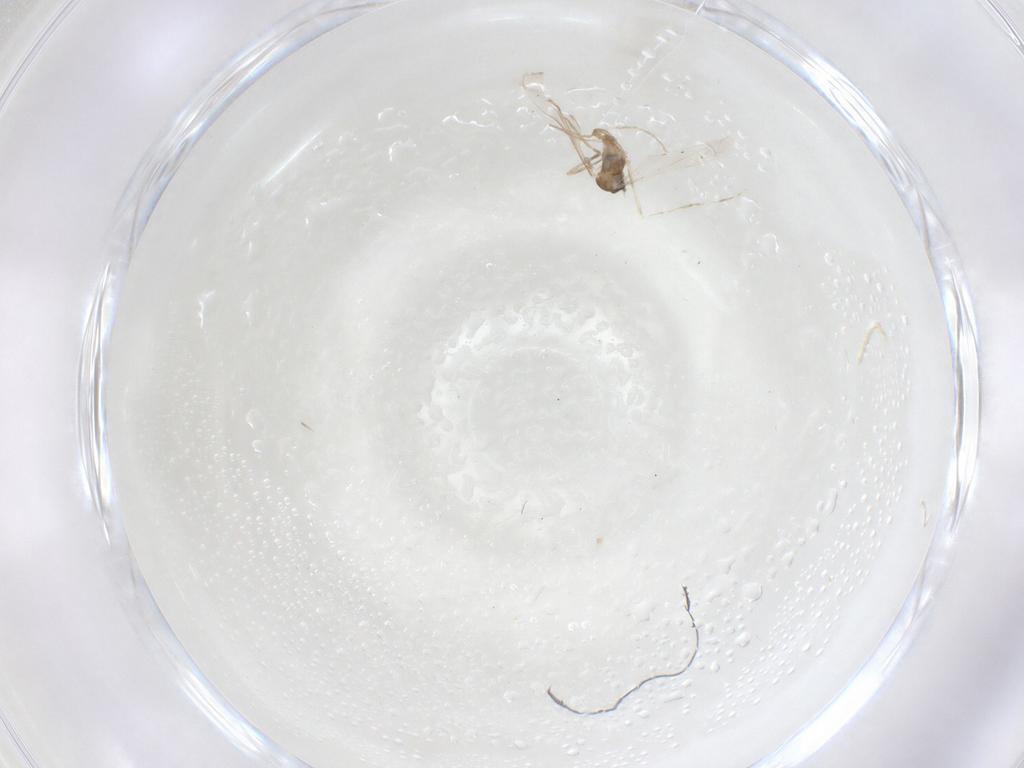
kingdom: Animalia
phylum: Arthropoda
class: Insecta
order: Diptera
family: Cecidomyiidae
